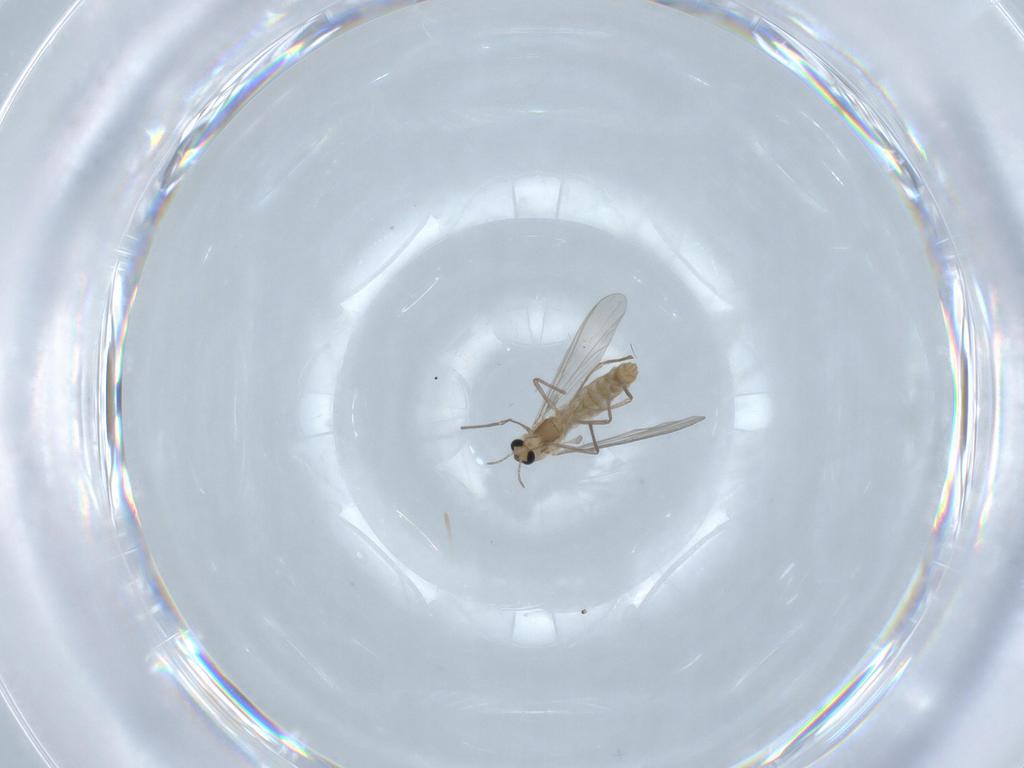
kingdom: Animalia
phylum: Arthropoda
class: Insecta
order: Diptera
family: Chironomidae
